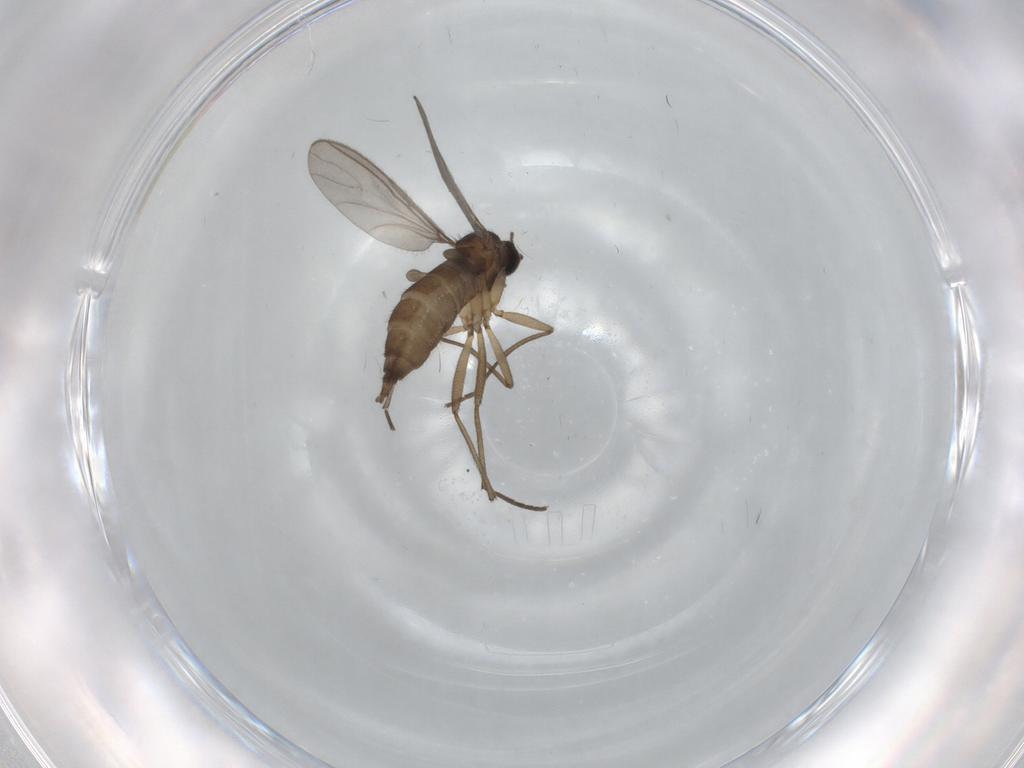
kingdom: Animalia
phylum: Arthropoda
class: Insecta
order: Diptera
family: Sciaridae
